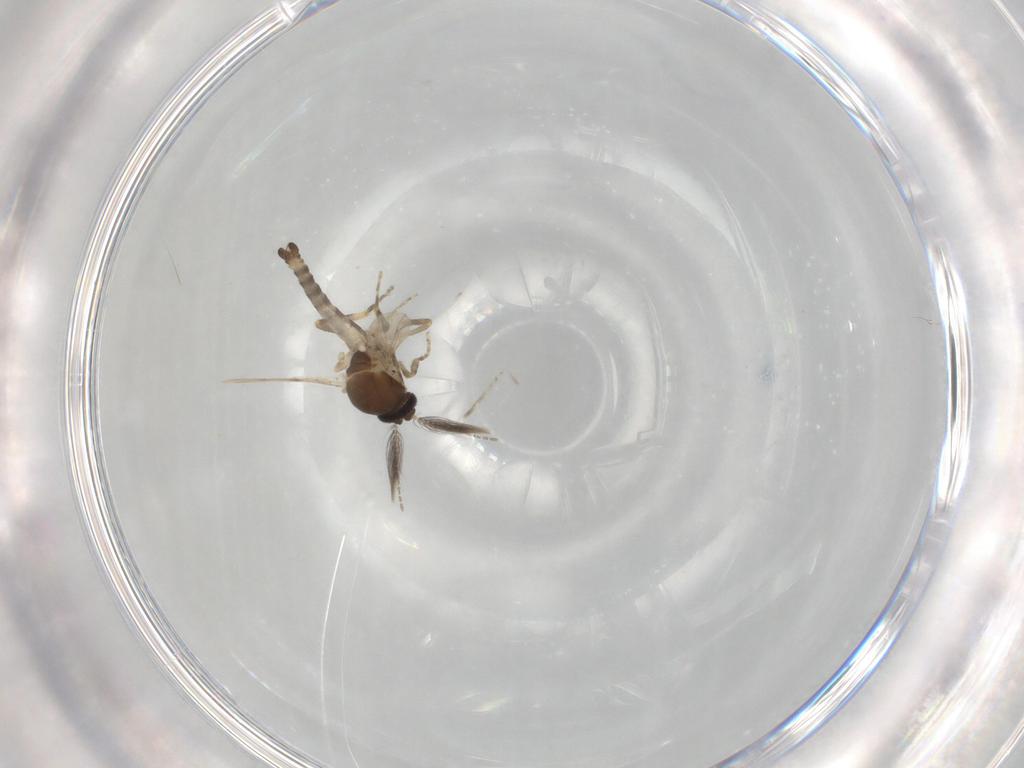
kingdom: Animalia
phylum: Arthropoda
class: Insecta
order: Diptera
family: Ceratopogonidae
